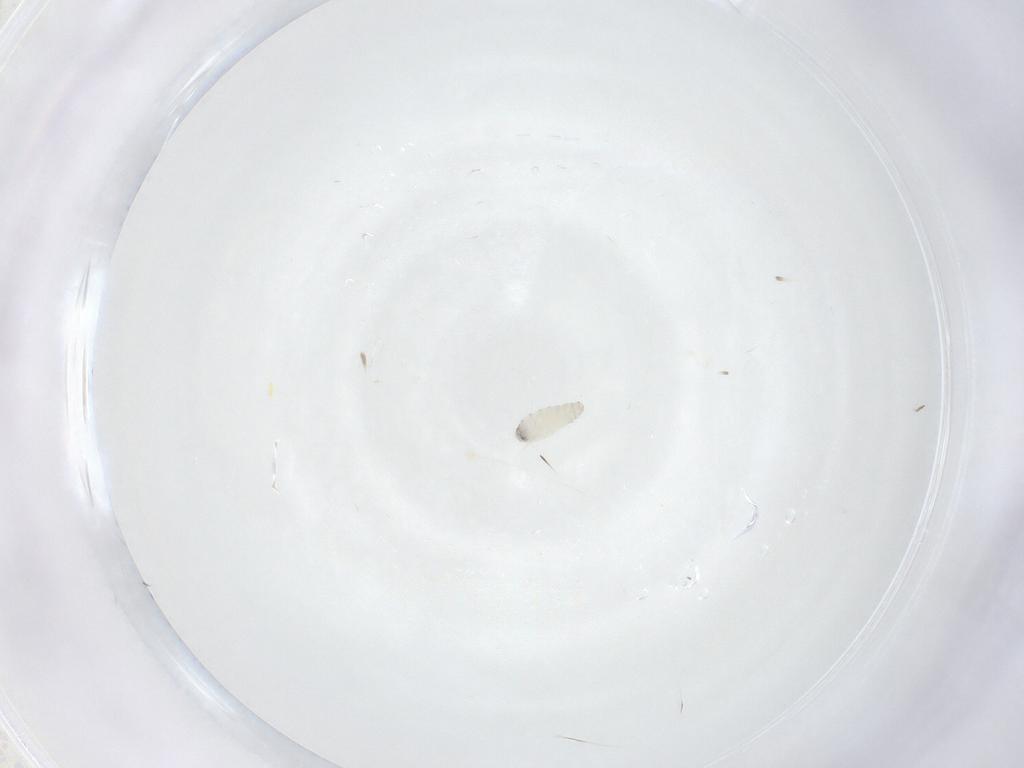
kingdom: Animalia
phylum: Arthropoda
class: Insecta
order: Diptera
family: Tachinidae
